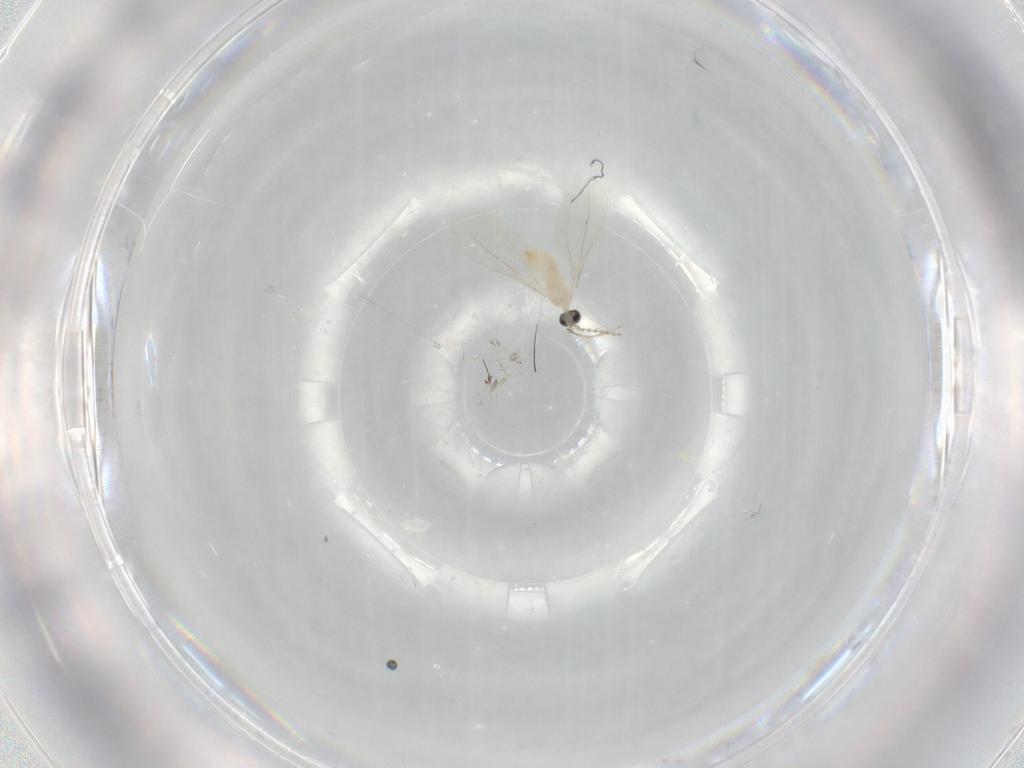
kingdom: Animalia
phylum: Arthropoda
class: Insecta
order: Diptera
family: Cecidomyiidae
